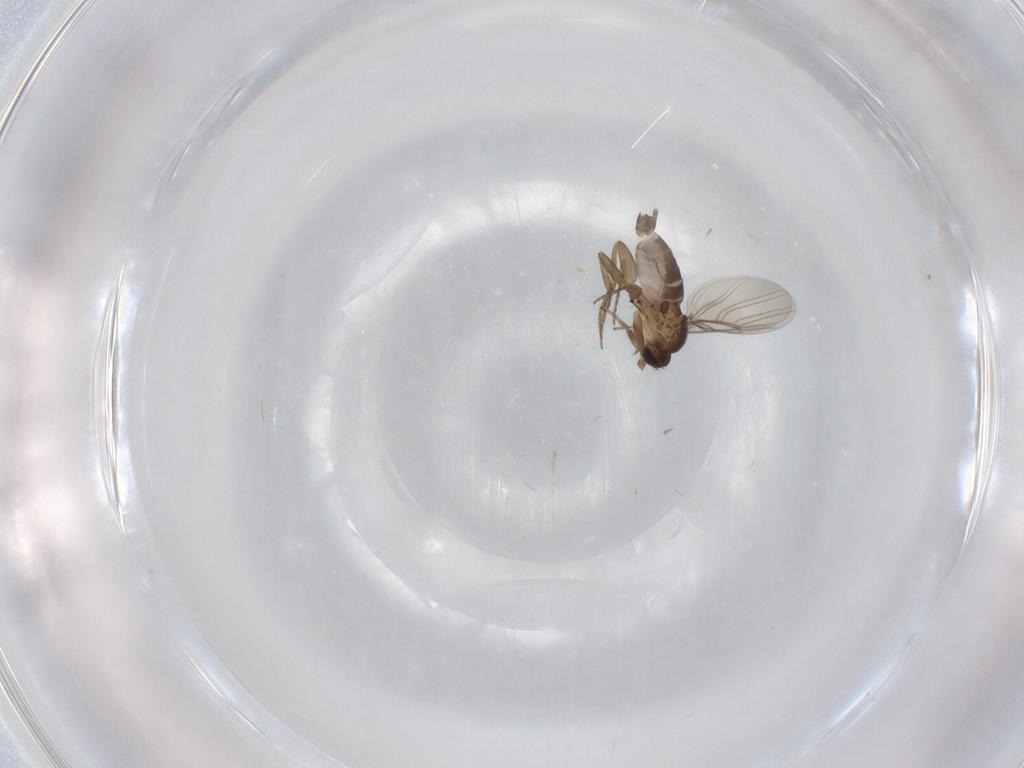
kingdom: Animalia
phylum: Arthropoda
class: Insecta
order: Diptera
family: Phoridae
